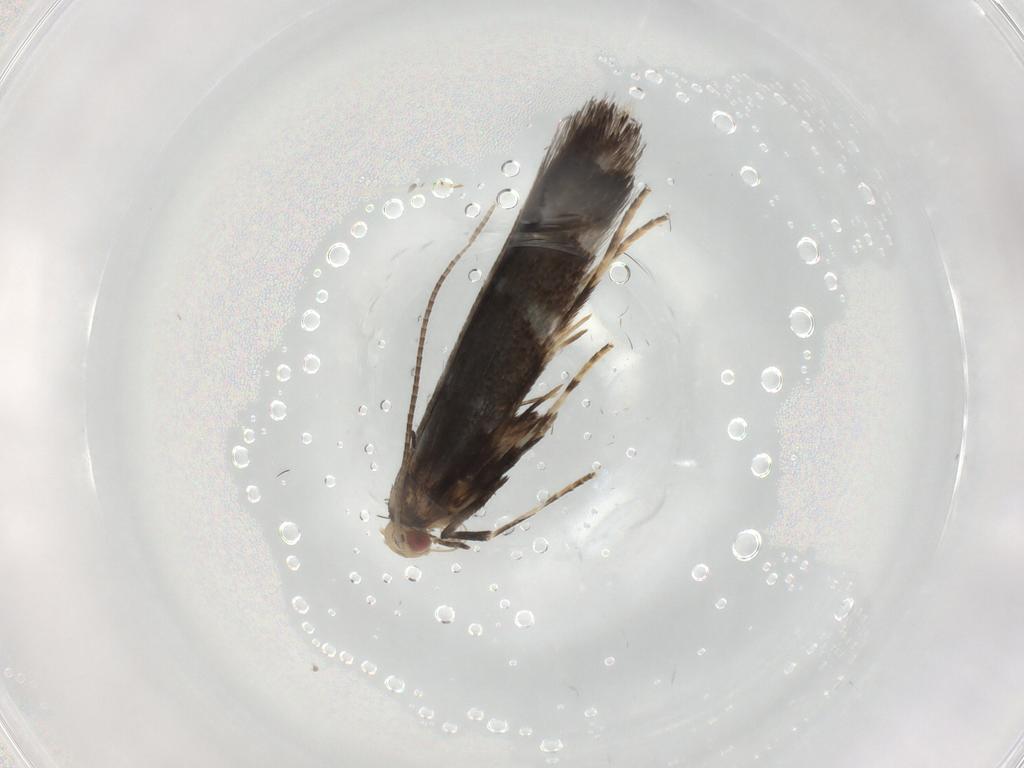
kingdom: Animalia
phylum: Arthropoda
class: Insecta
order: Lepidoptera
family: Gracillariidae
